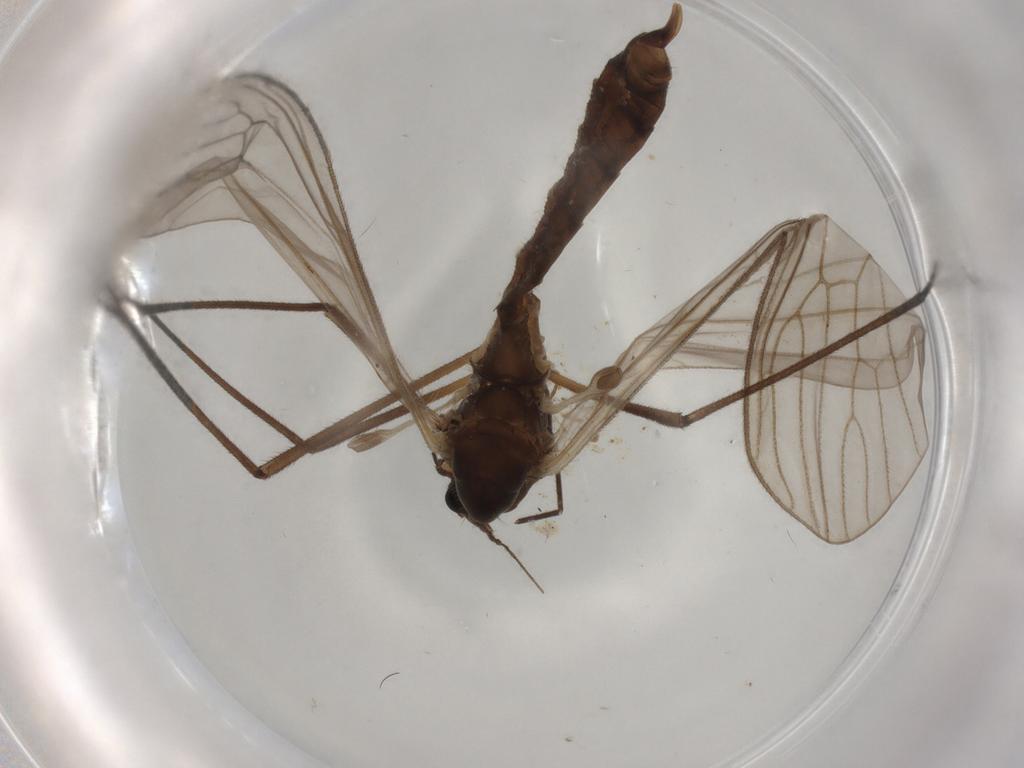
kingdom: Animalia
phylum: Arthropoda
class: Insecta
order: Diptera
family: Trichoceridae
